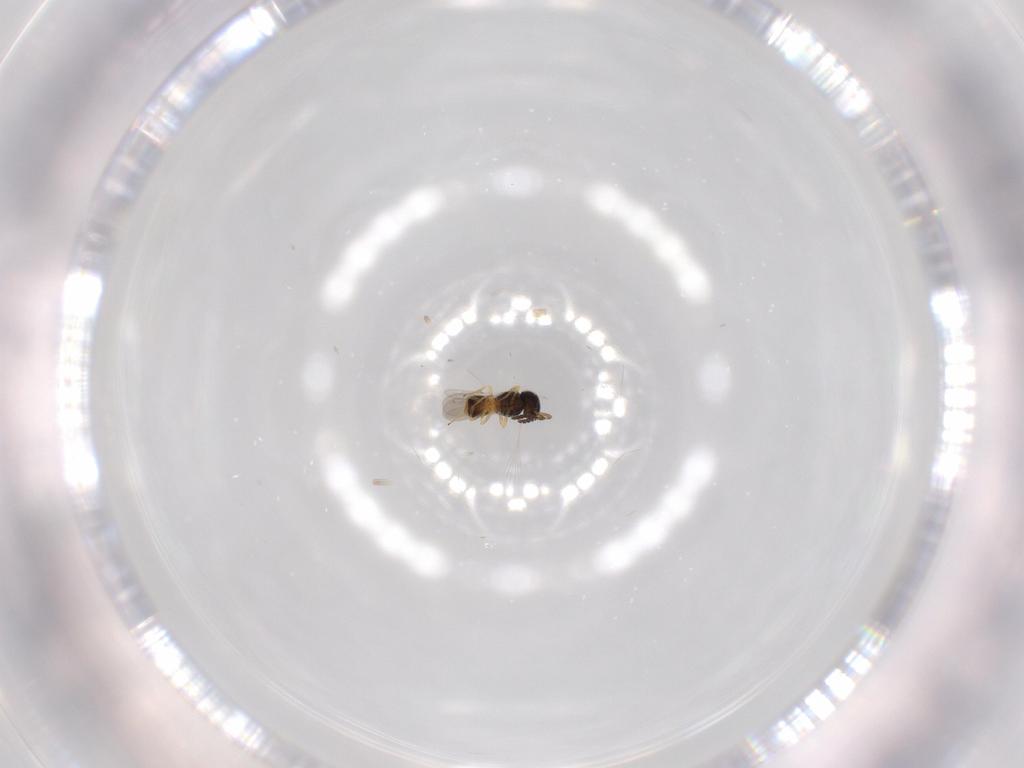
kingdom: Animalia
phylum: Arthropoda
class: Insecta
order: Hymenoptera
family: Scelionidae
